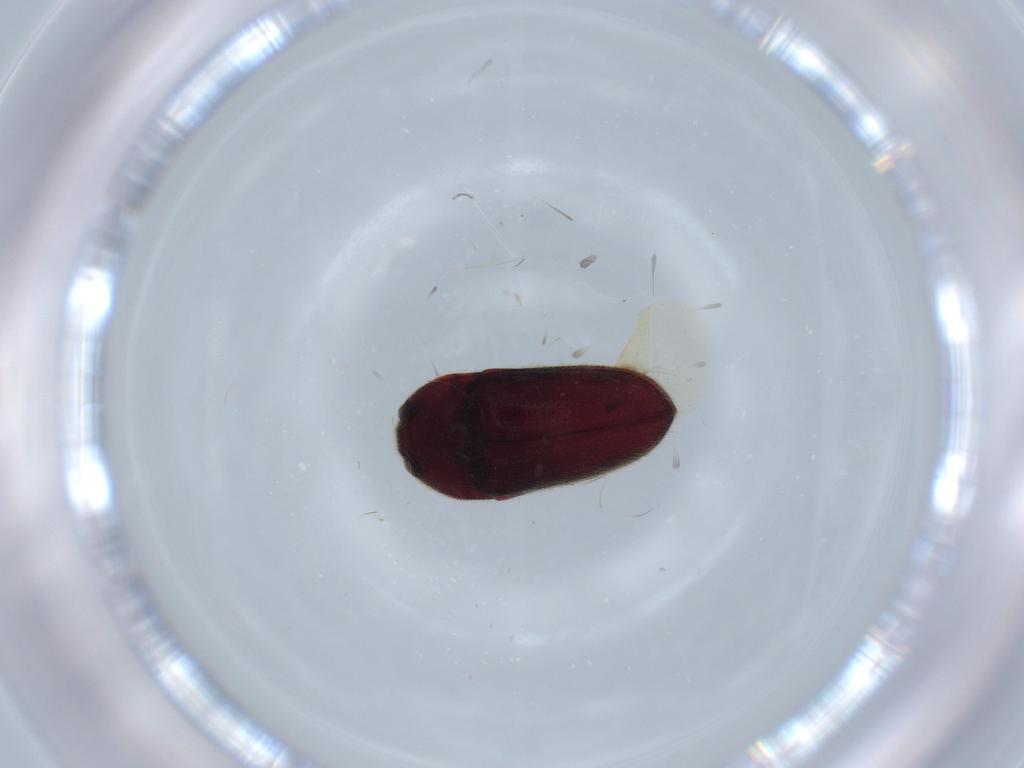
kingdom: Animalia
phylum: Arthropoda
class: Insecta
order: Coleoptera
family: Throscidae
